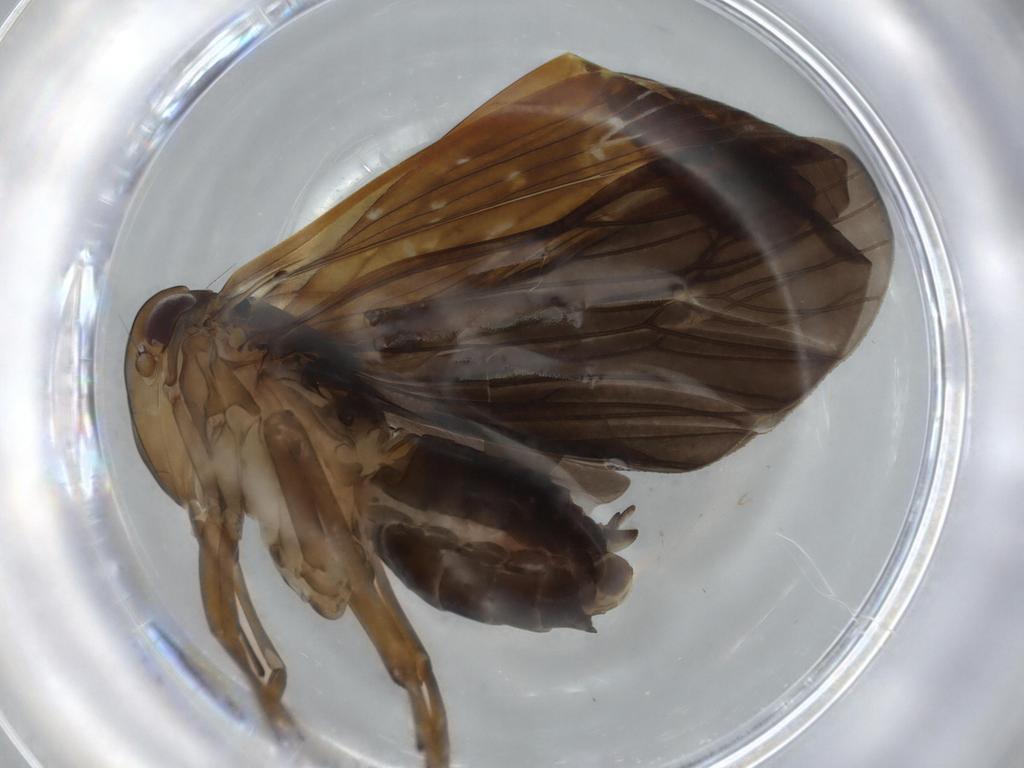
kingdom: Animalia
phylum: Arthropoda
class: Insecta
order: Hemiptera
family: Achilidae
